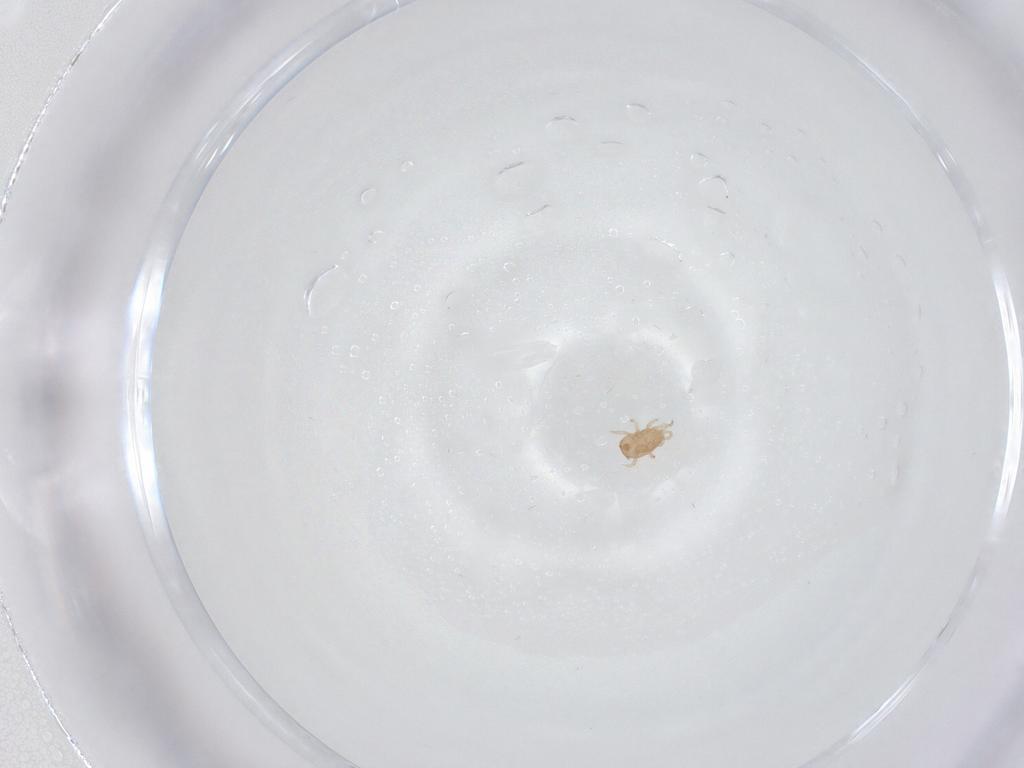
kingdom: Animalia
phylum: Arthropoda
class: Arachnida
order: Mesostigmata
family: Ascidae
